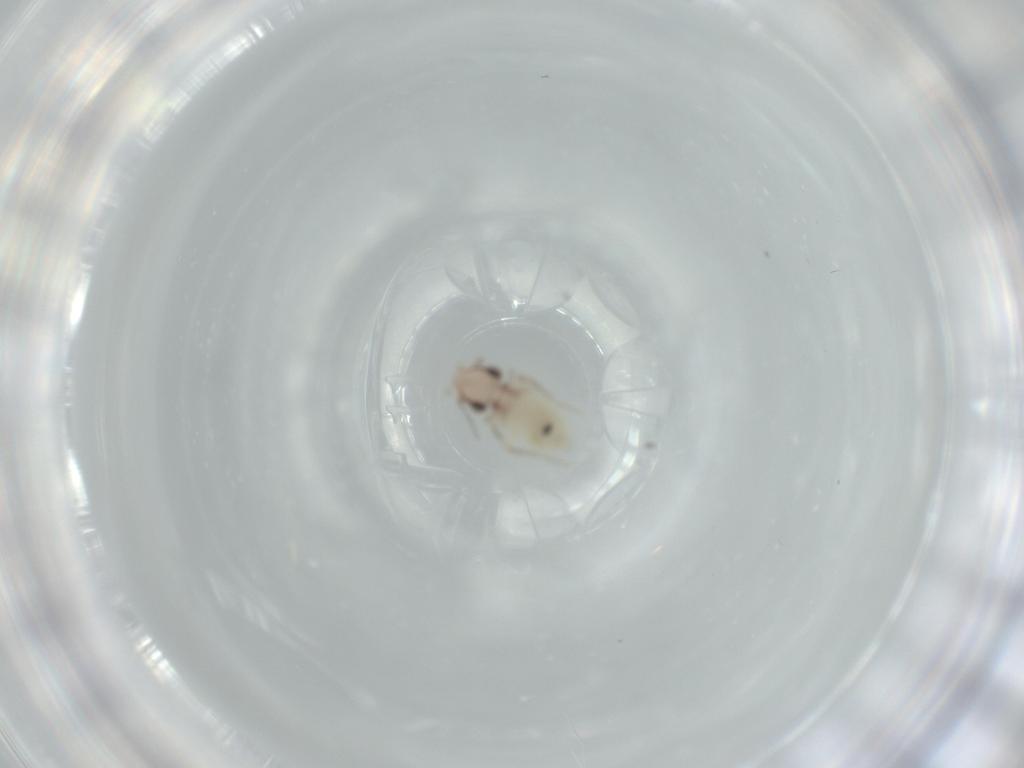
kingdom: Animalia
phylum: Arthropoda
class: Insecta
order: Psocodea
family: Lepidopsocidae
